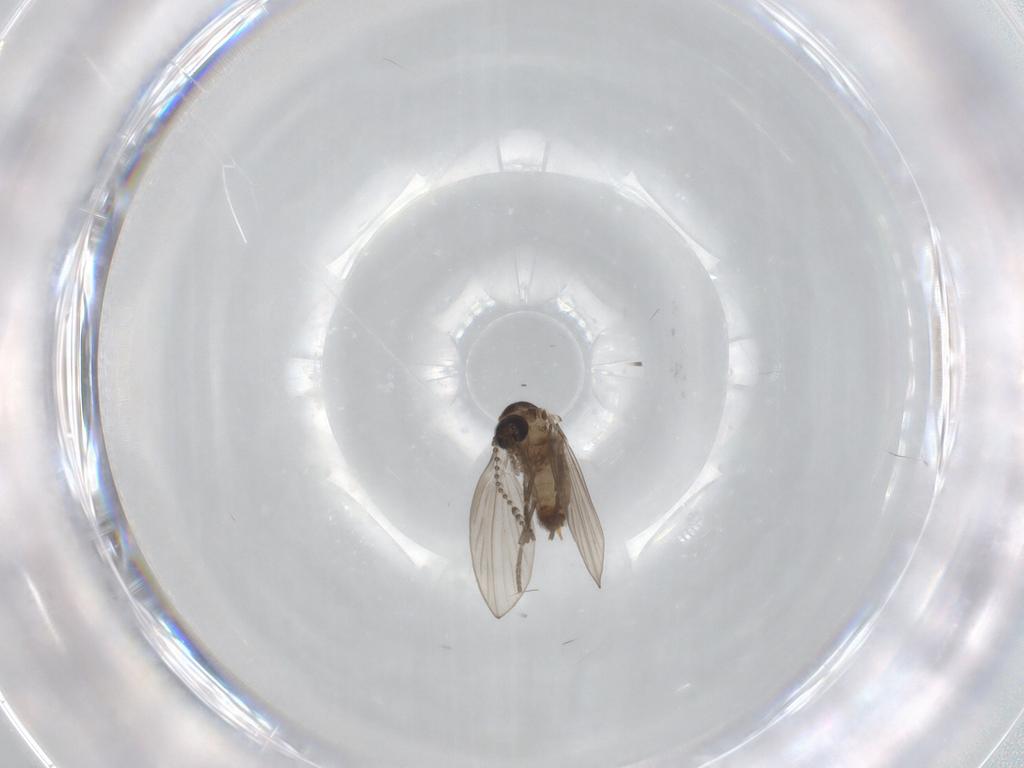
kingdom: Animalia
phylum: Arthropoda
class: Insecta
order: Diptera
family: Psychodidae
